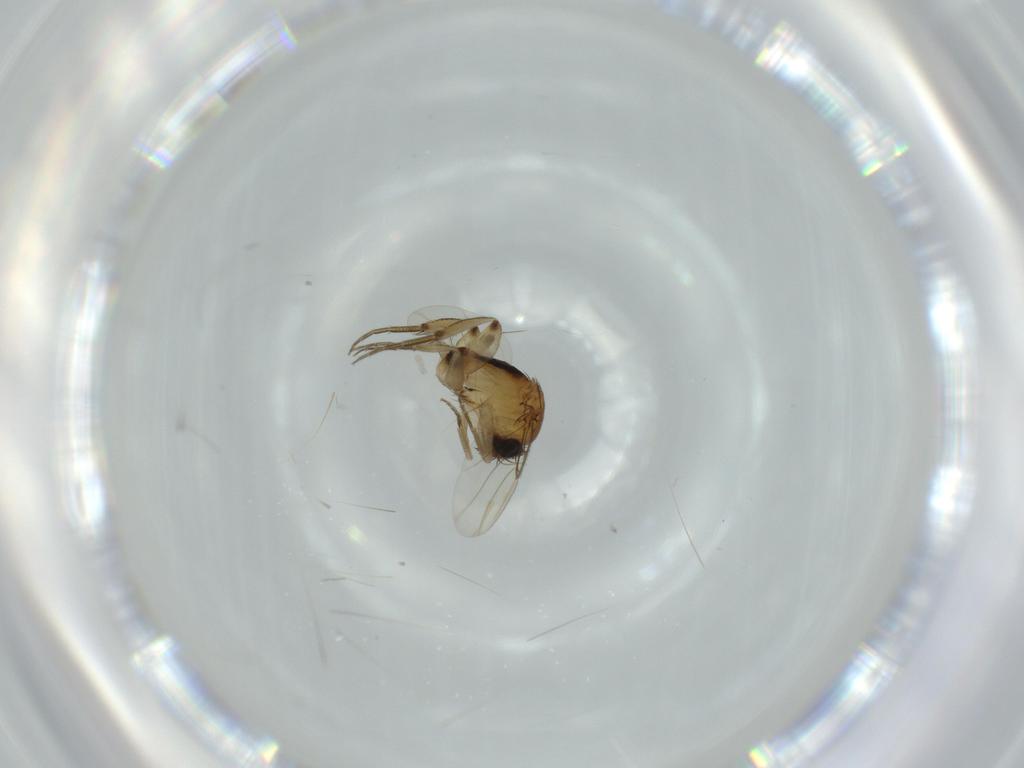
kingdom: Animalia
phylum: Arthropoda
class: Insecta
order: Diptera
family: Phoridae
